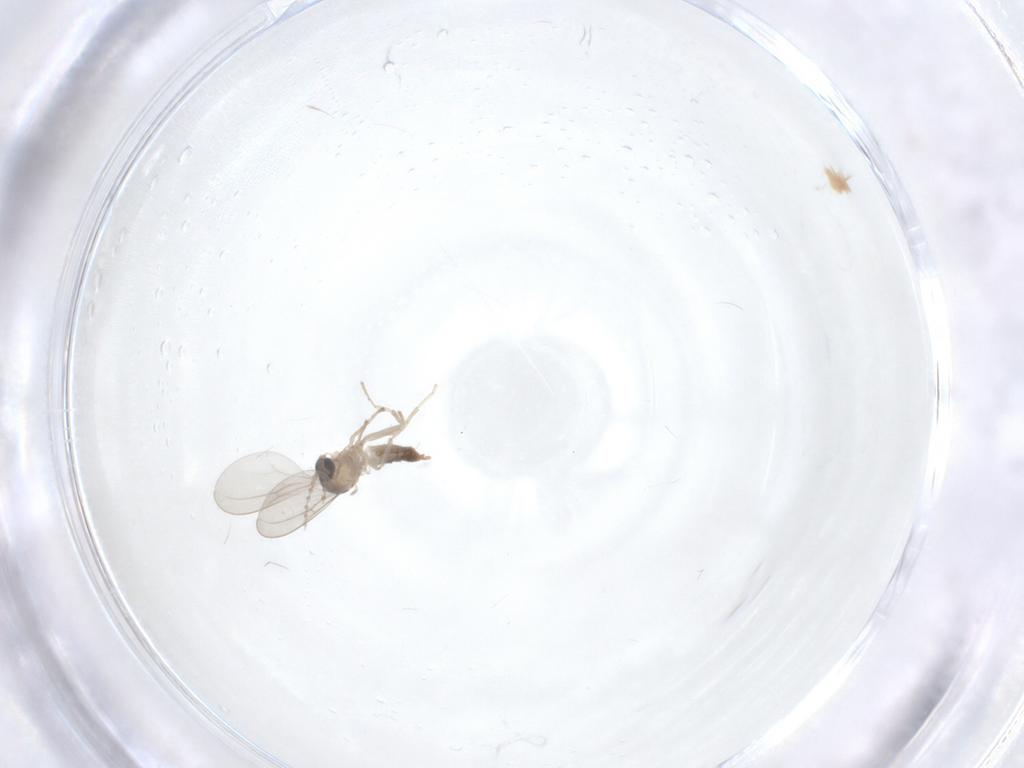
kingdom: Animalia
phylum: Arthropoda
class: Insecta
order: Diptera
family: Cecidomyiidae
